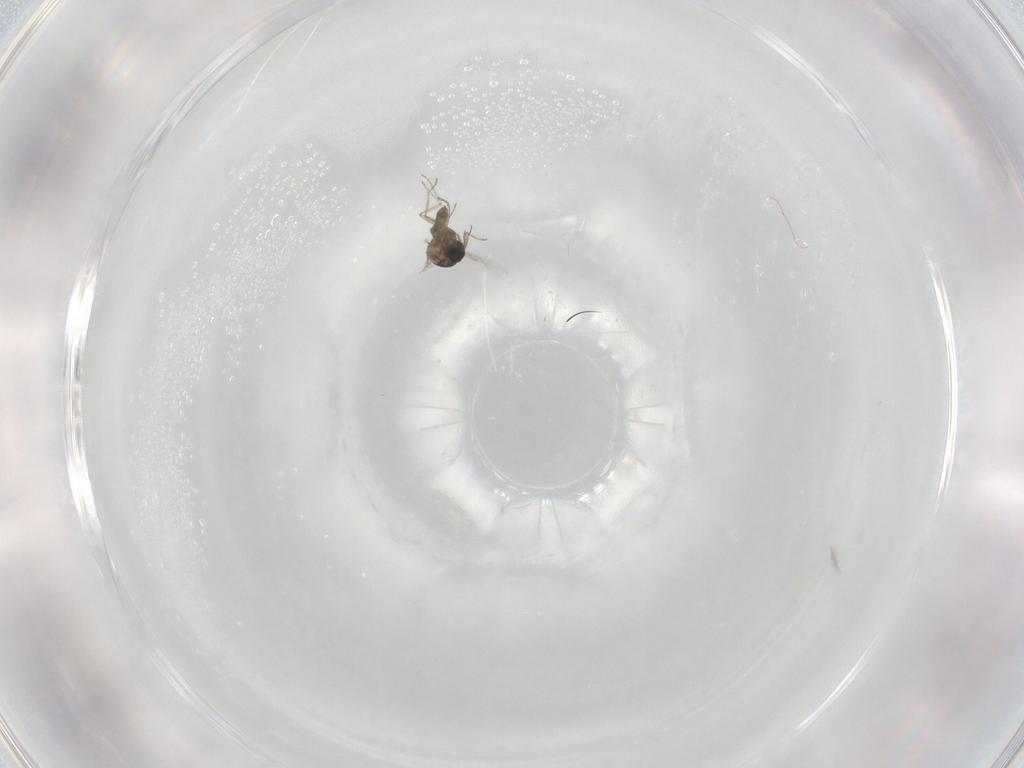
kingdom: Animalia
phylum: Arthropoda
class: Insecta
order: Diptera
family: Ceratopogonidae
